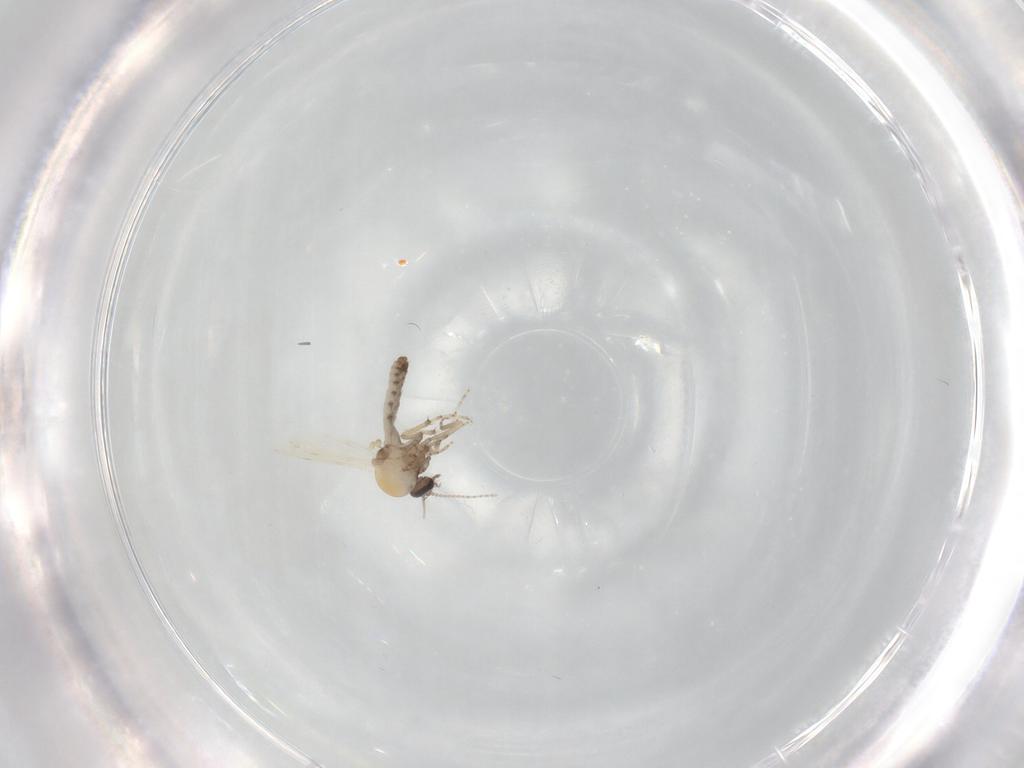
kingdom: Animalia
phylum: Arthropoda
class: Insecta
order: Diptera
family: Ceratopogonidae
